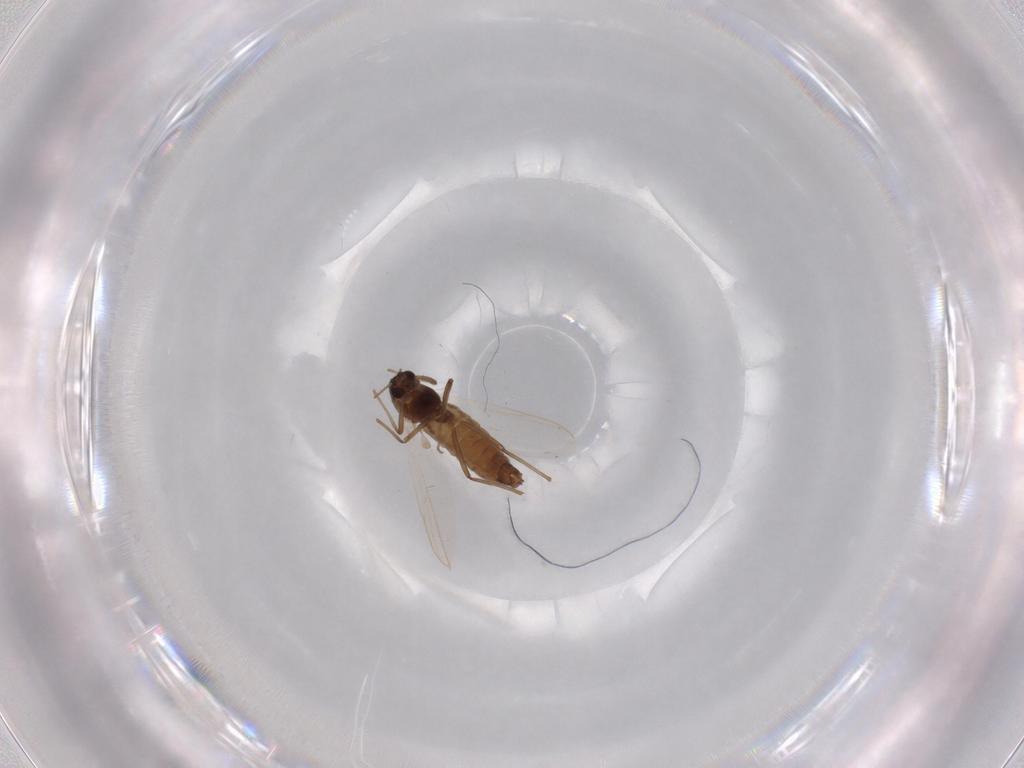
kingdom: Animalia
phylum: Arthropoda
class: Insecta
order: Diptera
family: Chironomidae
